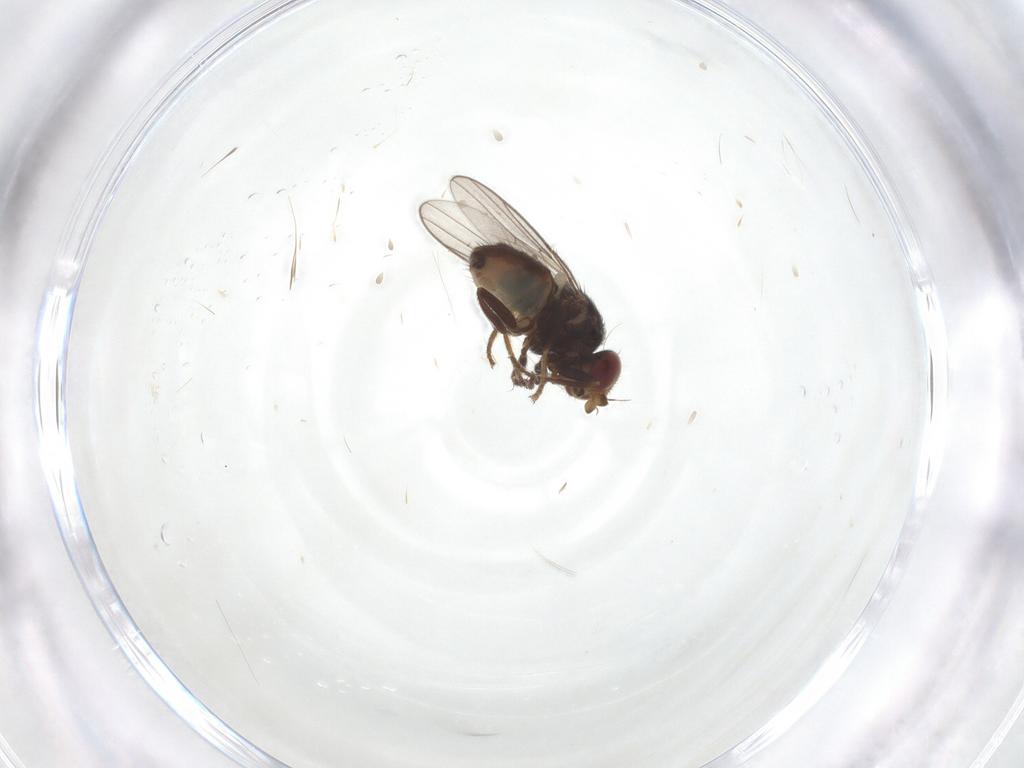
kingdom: Animalia
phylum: Arthropoda
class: Insecta
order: Diptera
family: Chloropidae
